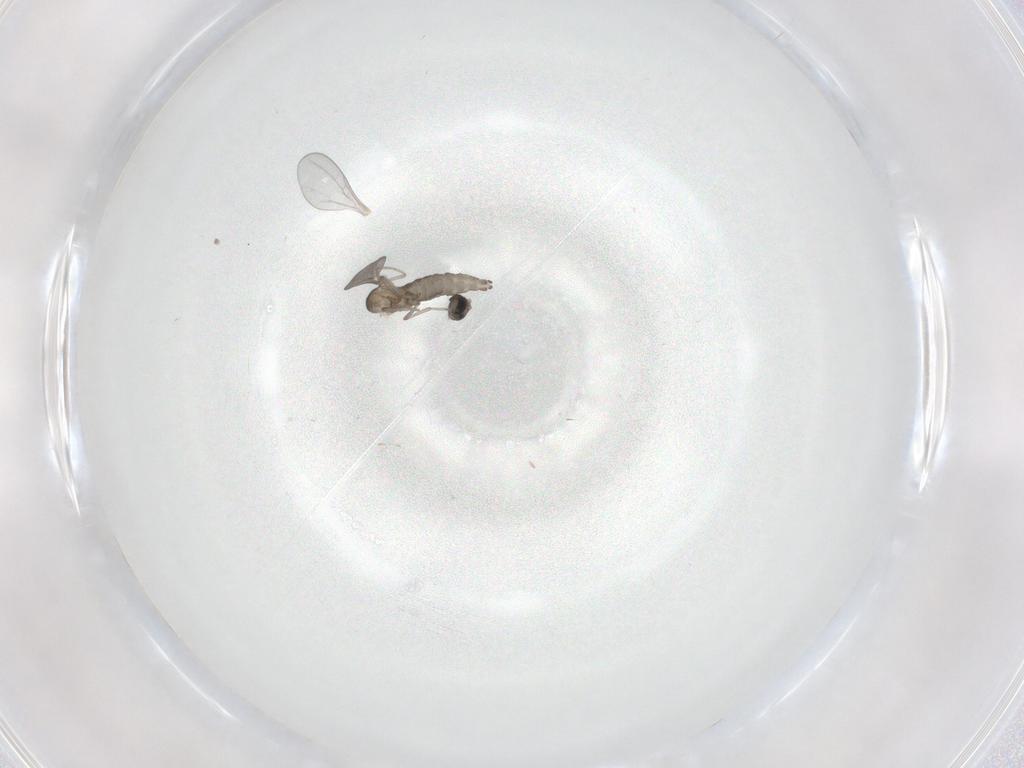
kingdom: Animalia
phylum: Arthropoda
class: Insecta
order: Diptera
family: Cecidomyiidae
